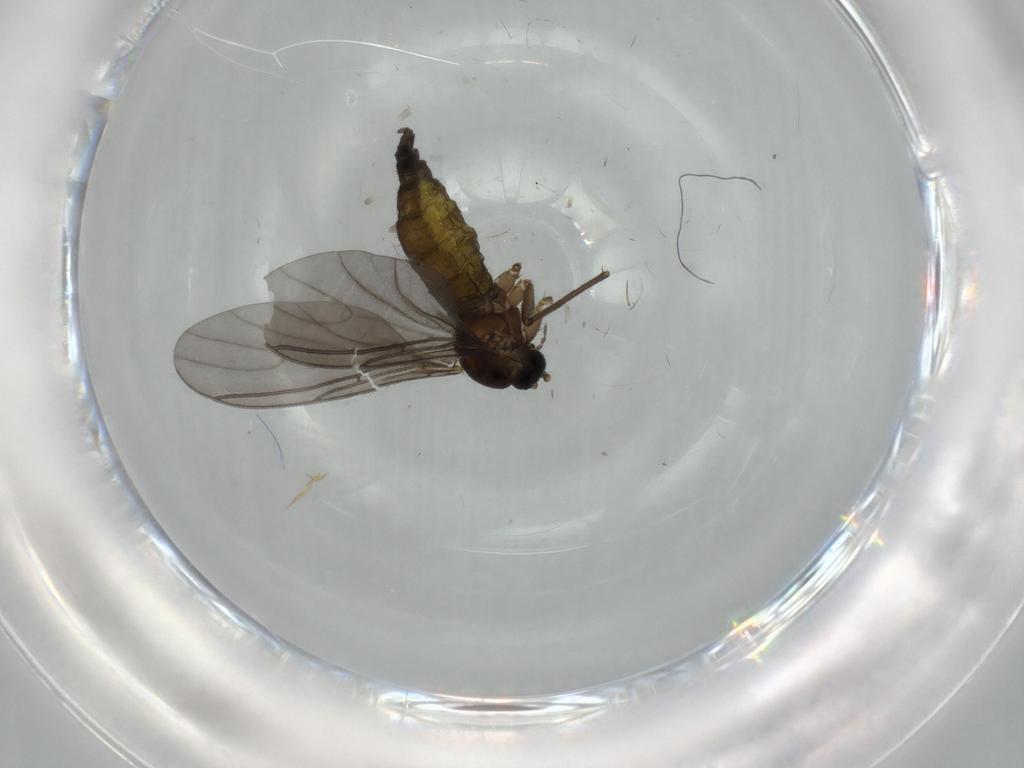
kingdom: Animalia
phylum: Arthropoda
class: Insecta
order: Diptera
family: Sciaridae
